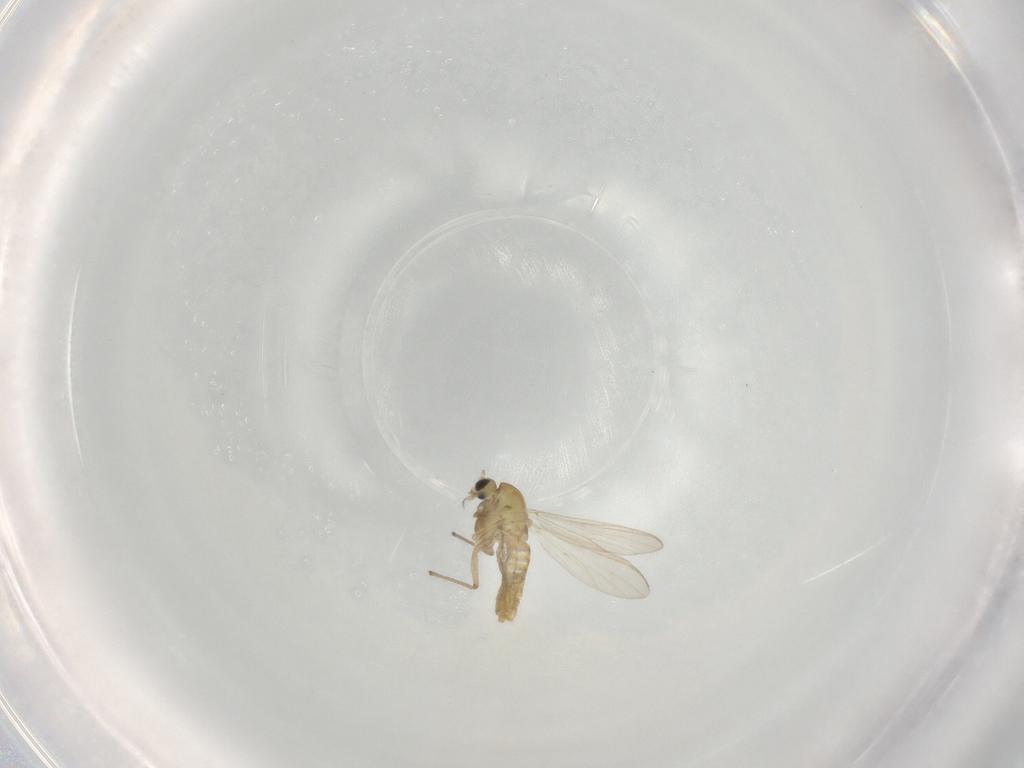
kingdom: Animalia
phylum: Arthropoda
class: Insecta
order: Diptera
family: Chironomidae
